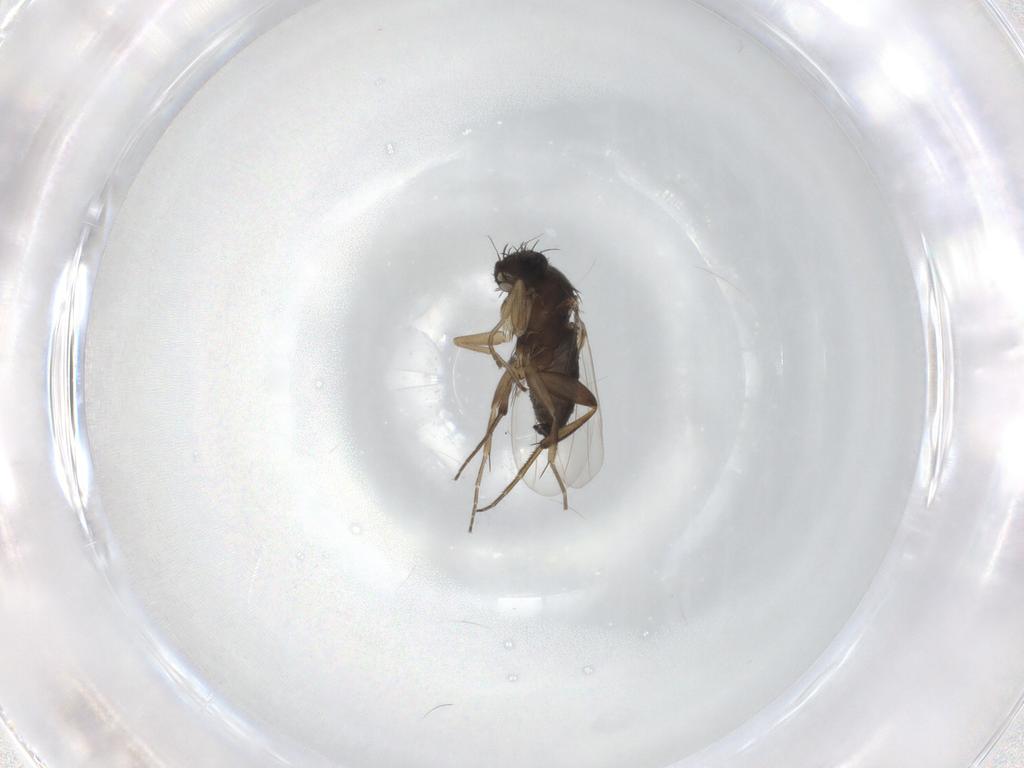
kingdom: Animalia
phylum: Arthropoda
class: Insecta
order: Diptera
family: Phoridae
